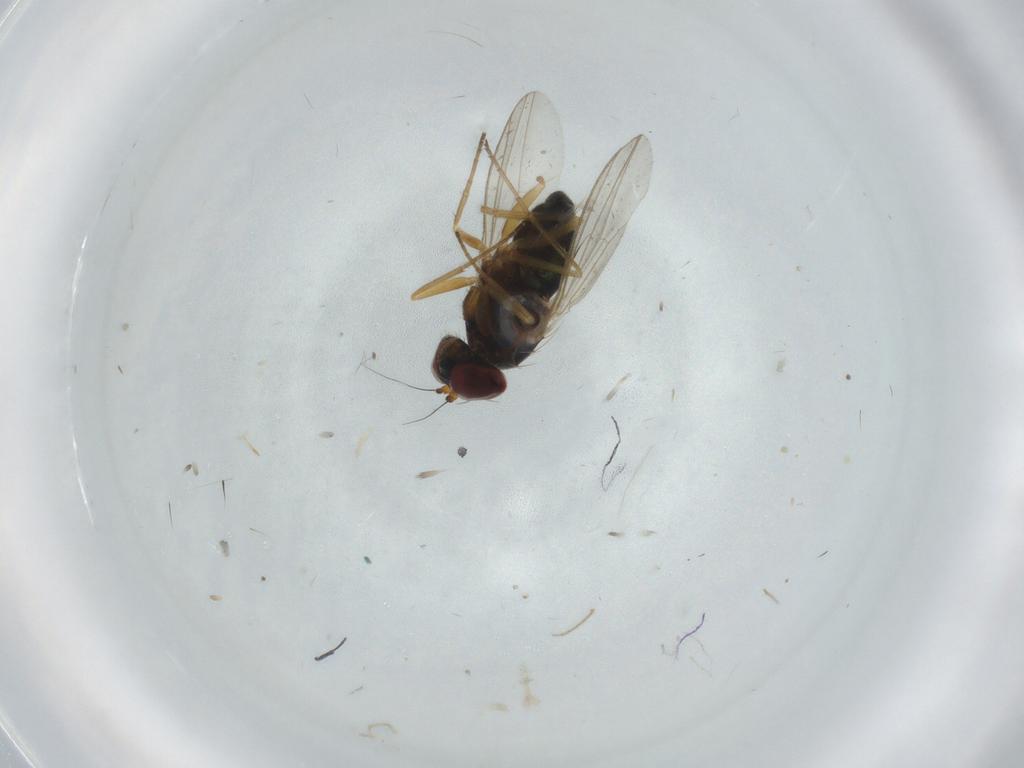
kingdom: Animalia
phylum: Arthropoda
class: Insecta
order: Diptera
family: Dolichopodidae
